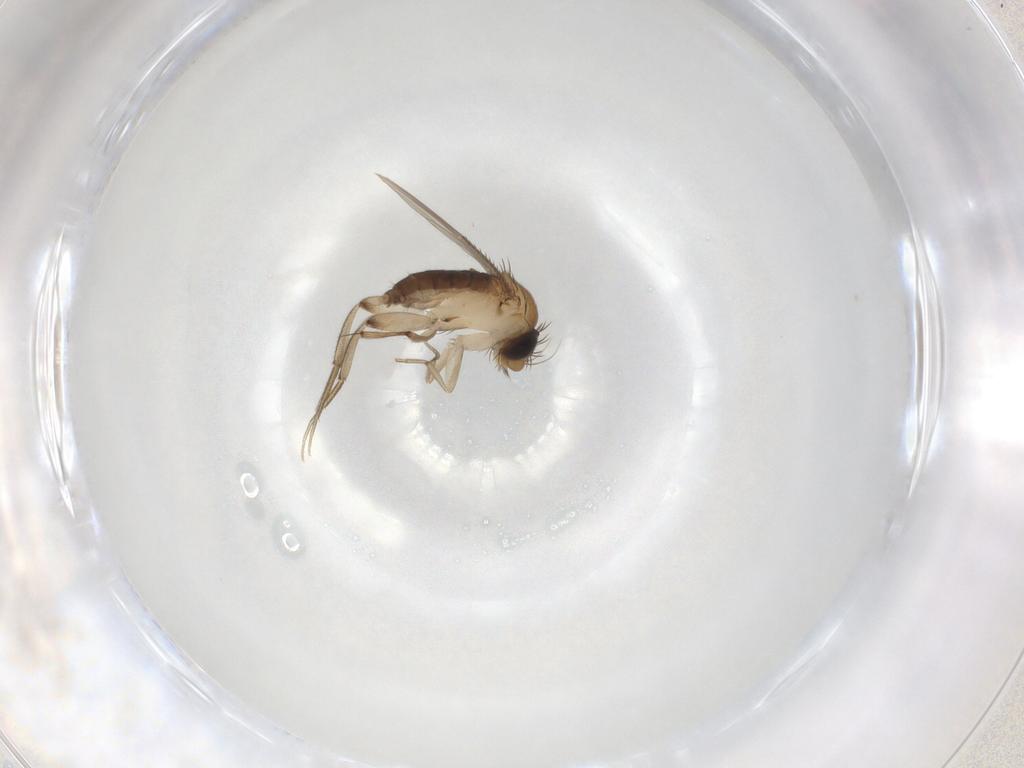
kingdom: Animalia
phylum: Arthropoda
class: Insecta
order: Diptera
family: Phoridae
